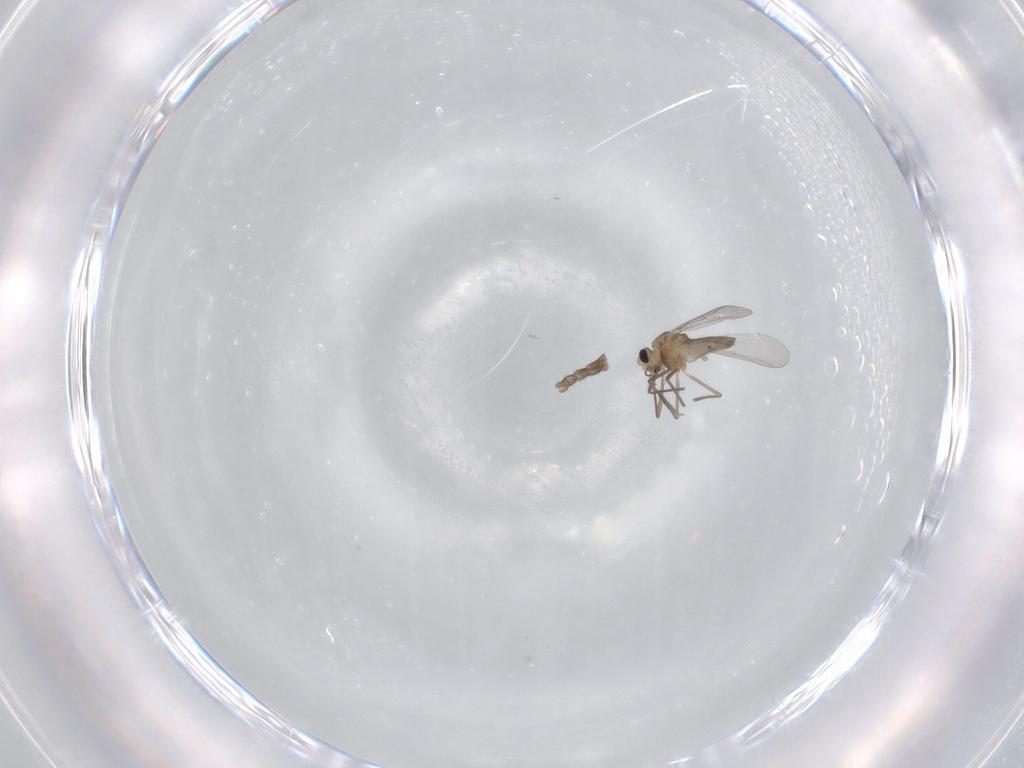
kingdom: Animalia
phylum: Arthropoda
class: Insecta
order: Diptera
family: Chironomidae
